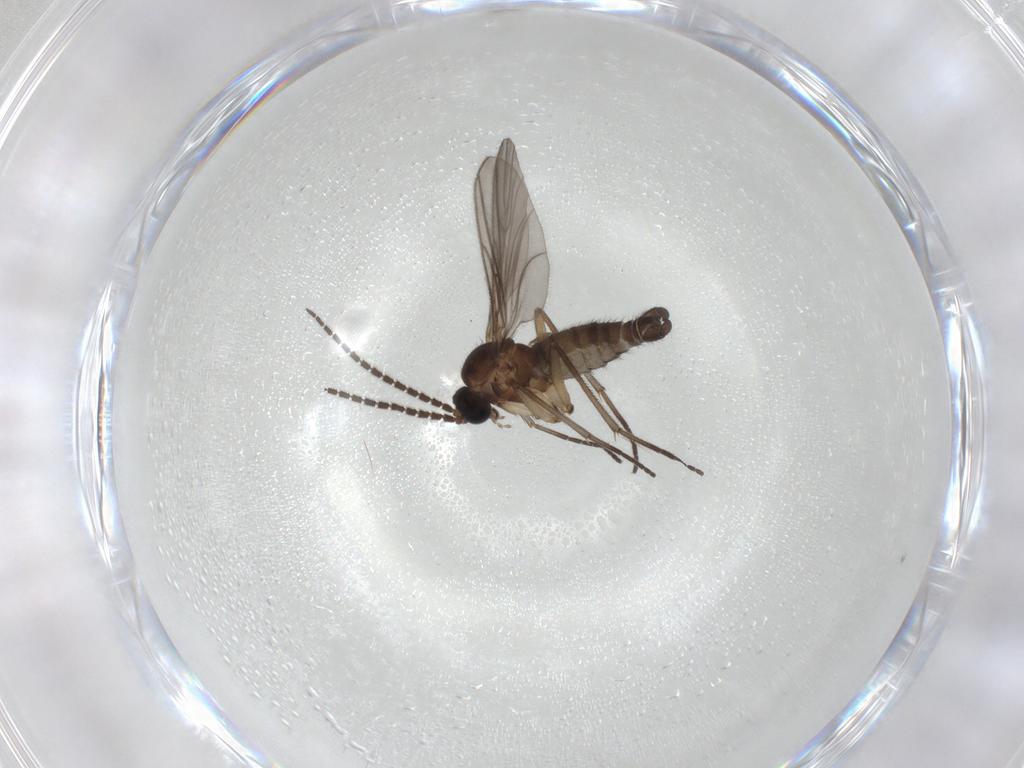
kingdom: Animalia
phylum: Arthropoda
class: Insecta
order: Diptera
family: Sciaridae
